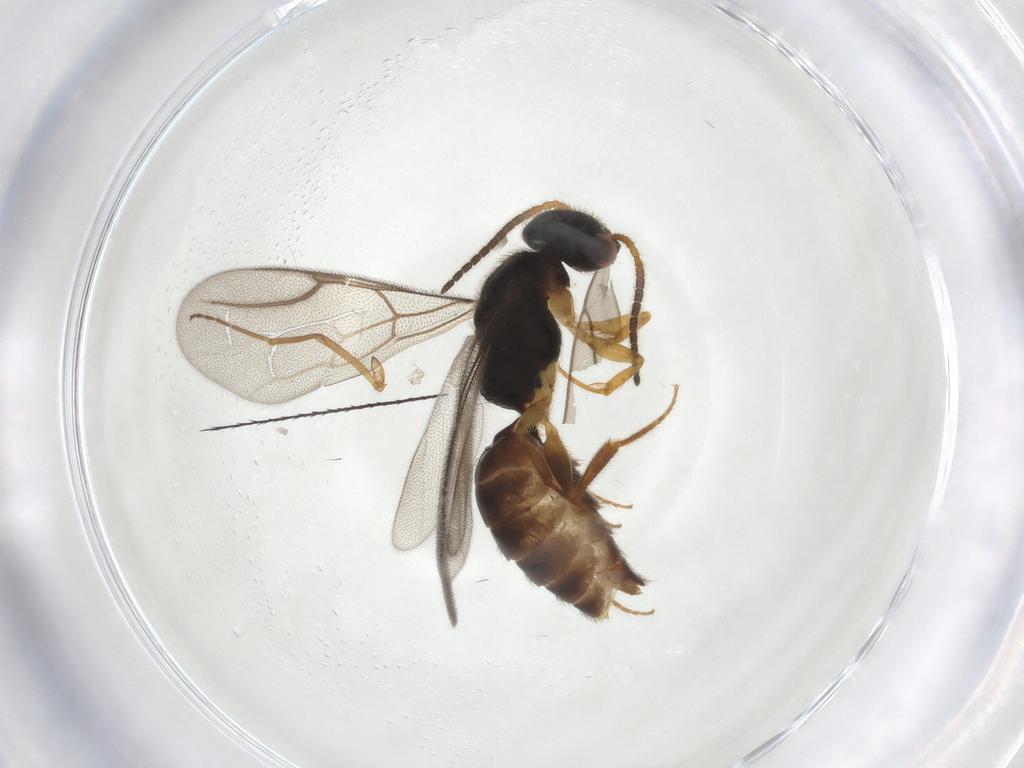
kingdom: Animalia
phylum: Arthropoda
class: Insecta
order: Hymenoptera
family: Bethylidae
